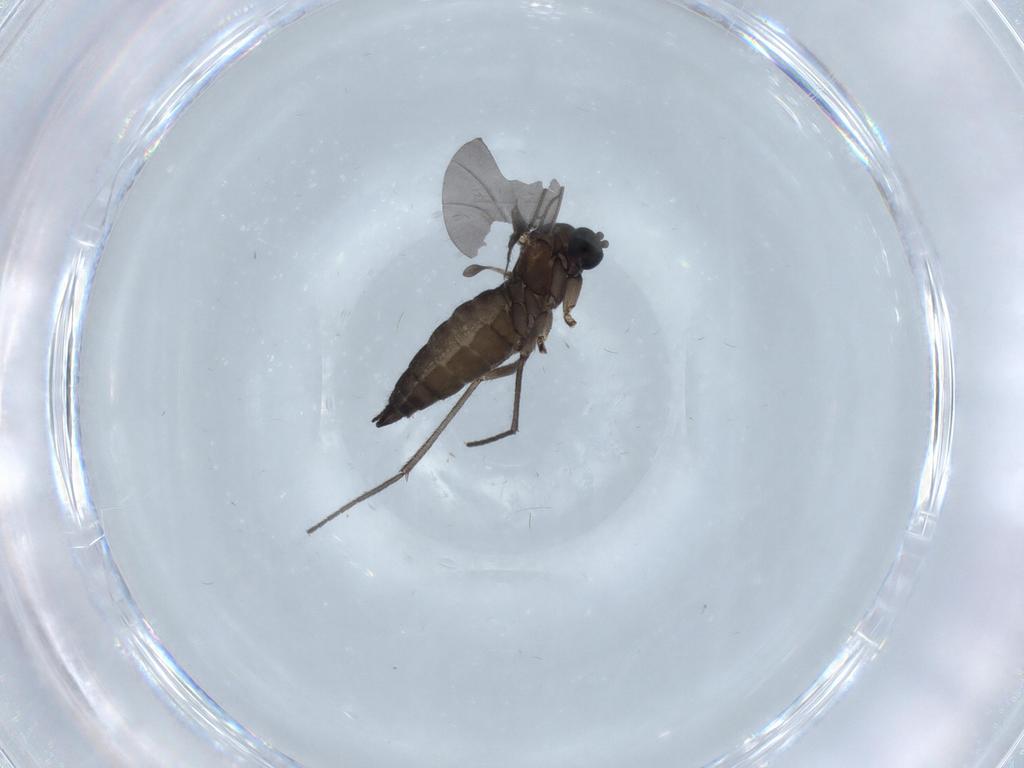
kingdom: Animalia
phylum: Arthropoda
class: Insecta
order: Diptera
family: Sciaridae
